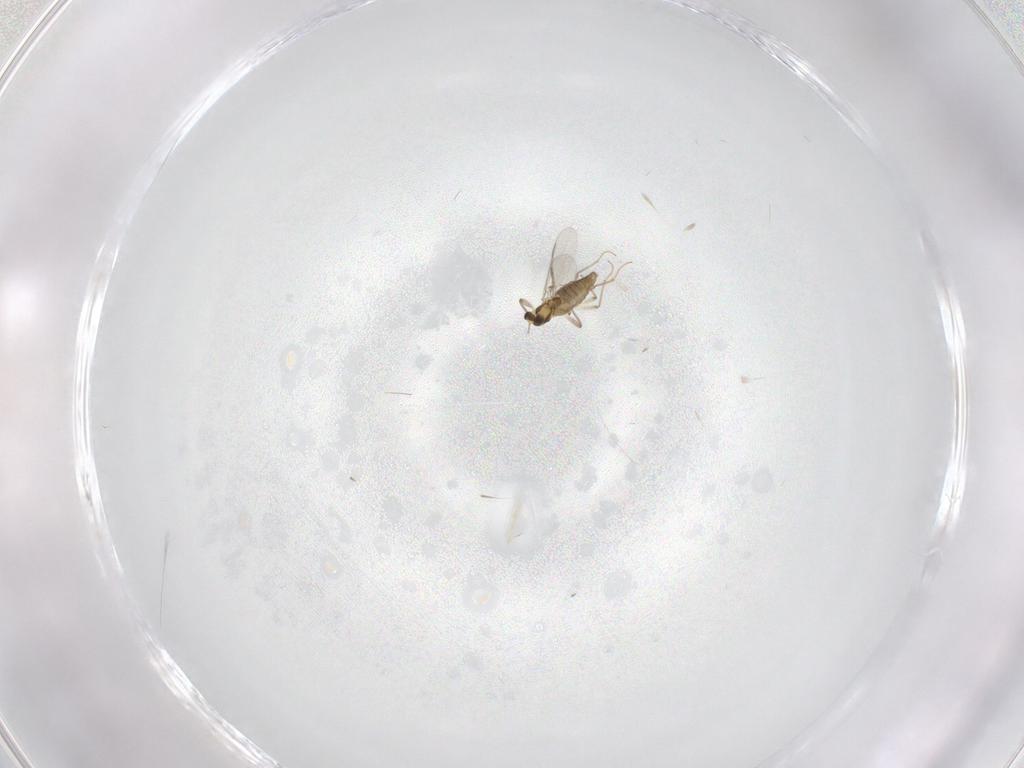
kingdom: Animalia
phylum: Arthropoda
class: Insecta
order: Diptera
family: Chironomidae
